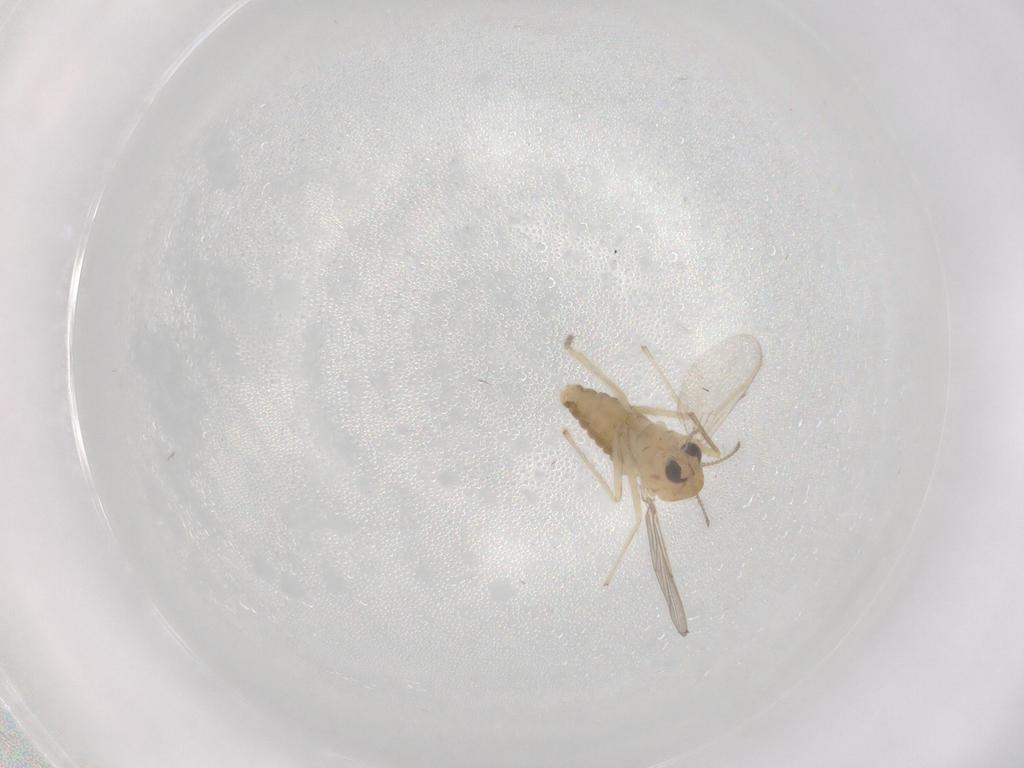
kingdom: Animalia
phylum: Arthropoda
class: Insecta
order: Diptera
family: Chironomidae
